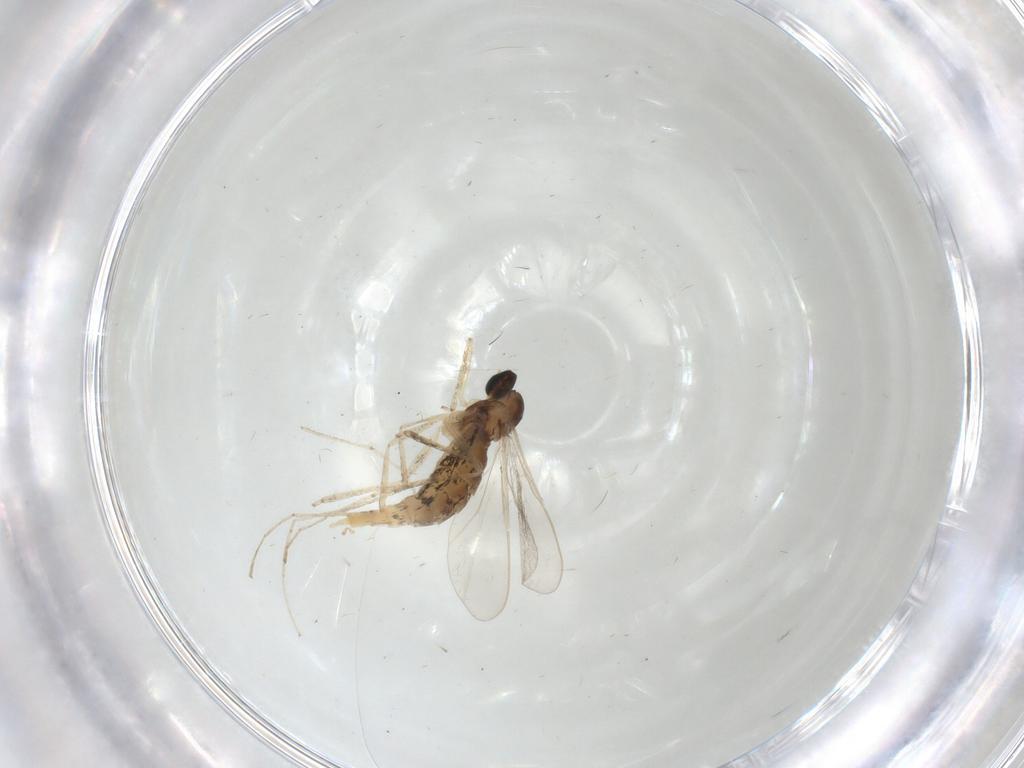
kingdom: Animalia
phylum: Arthropoda
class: Insecta
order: Diptera
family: Cecidomyiidae
